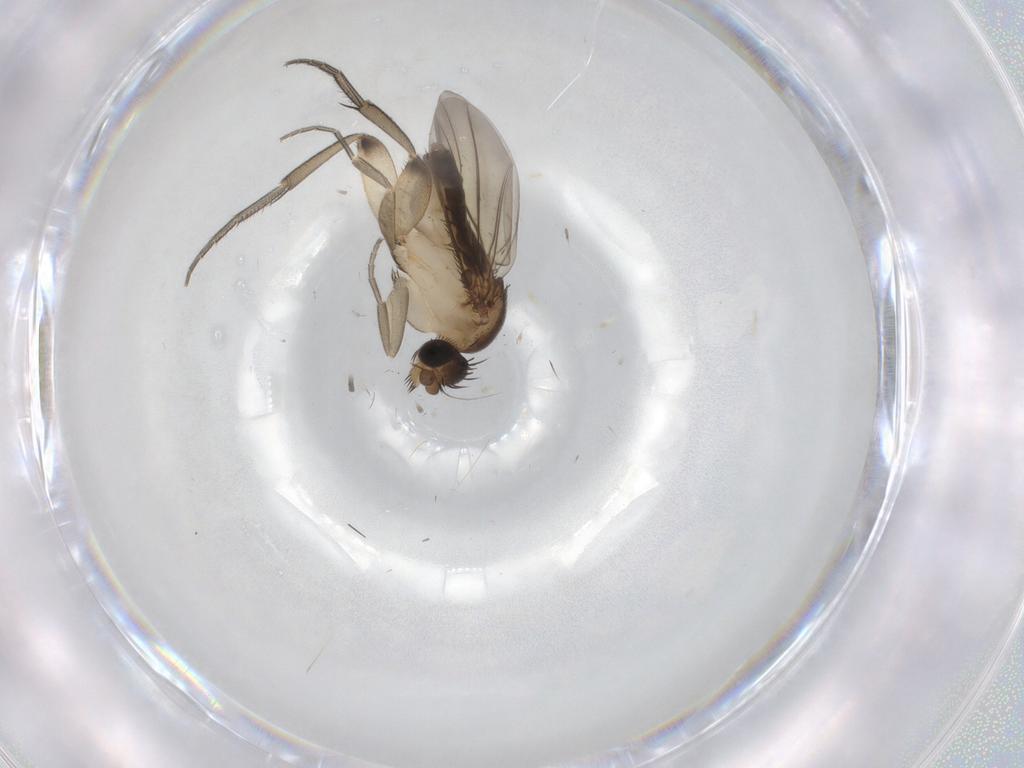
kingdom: Animalia
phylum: Arthropoda
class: Insecta
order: Diptera
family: Phoridae
